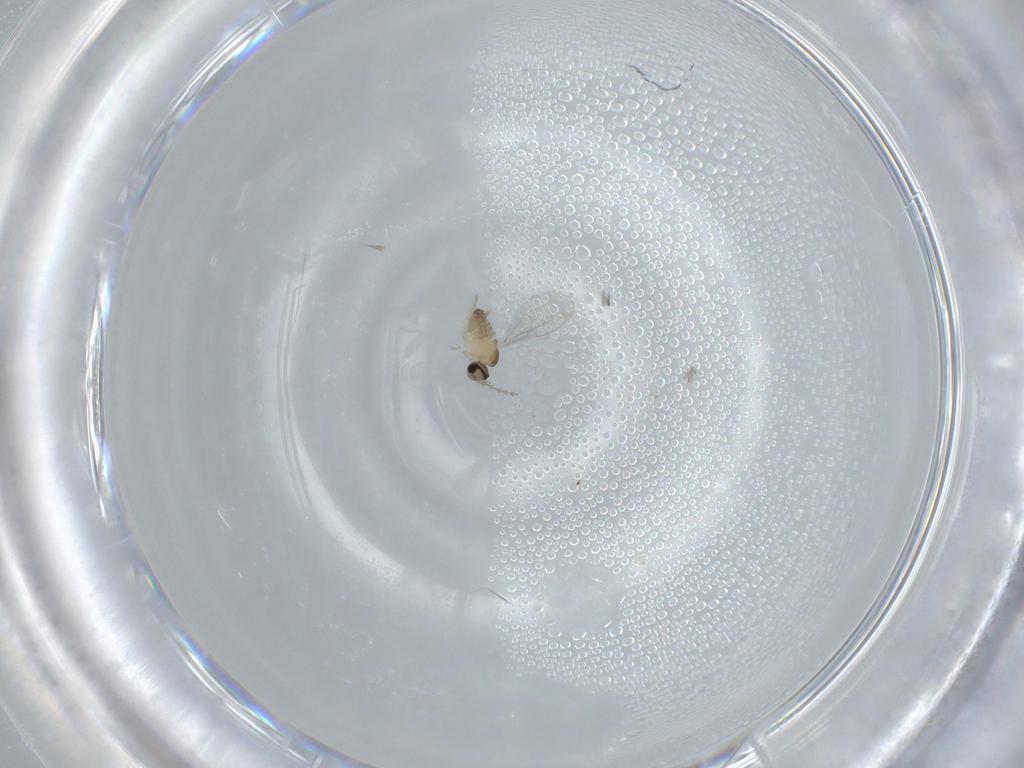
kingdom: Animalia
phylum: Arthropoda
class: Insecta
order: Diptera
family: Cecidomyiidae
